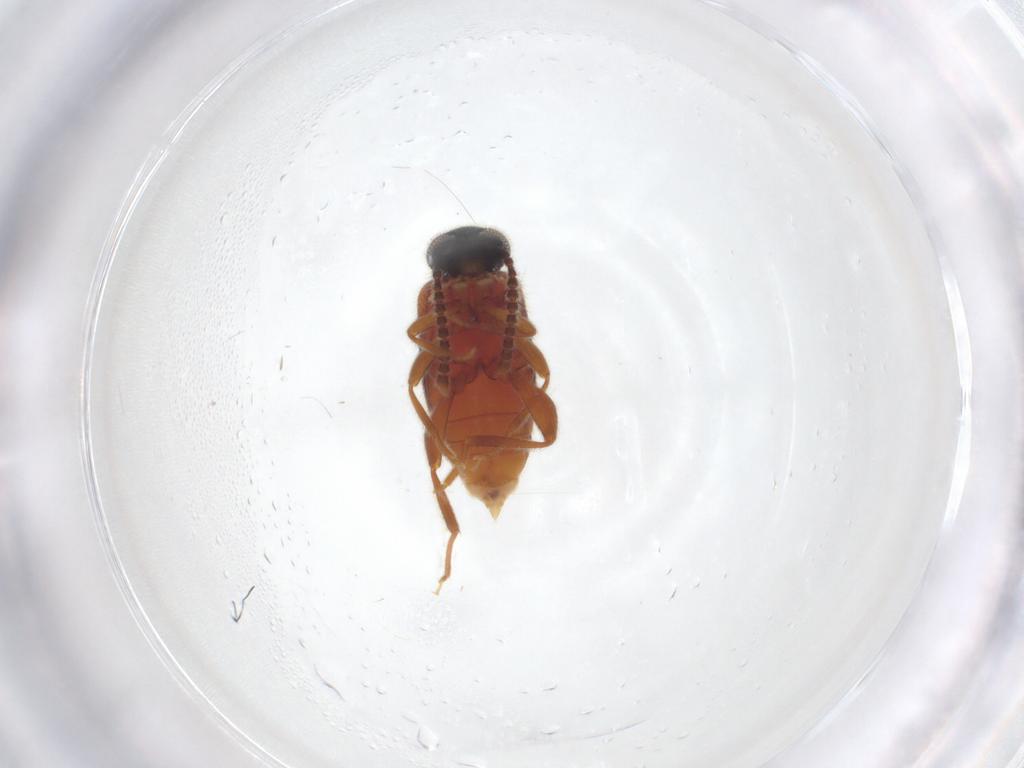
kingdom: Animalia
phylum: Arthropoda
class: Insecta
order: Coleoptera
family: Aderidae
